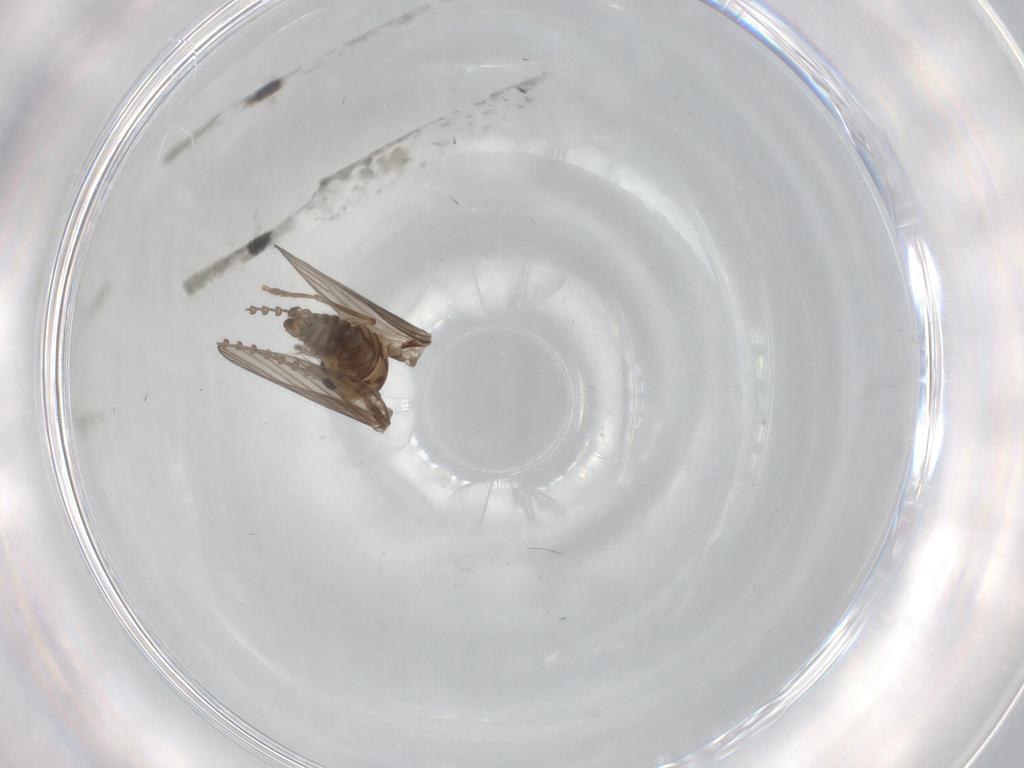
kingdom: Animalia
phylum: Arthropoda
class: Insecta
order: Diptera
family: Psychodidae
